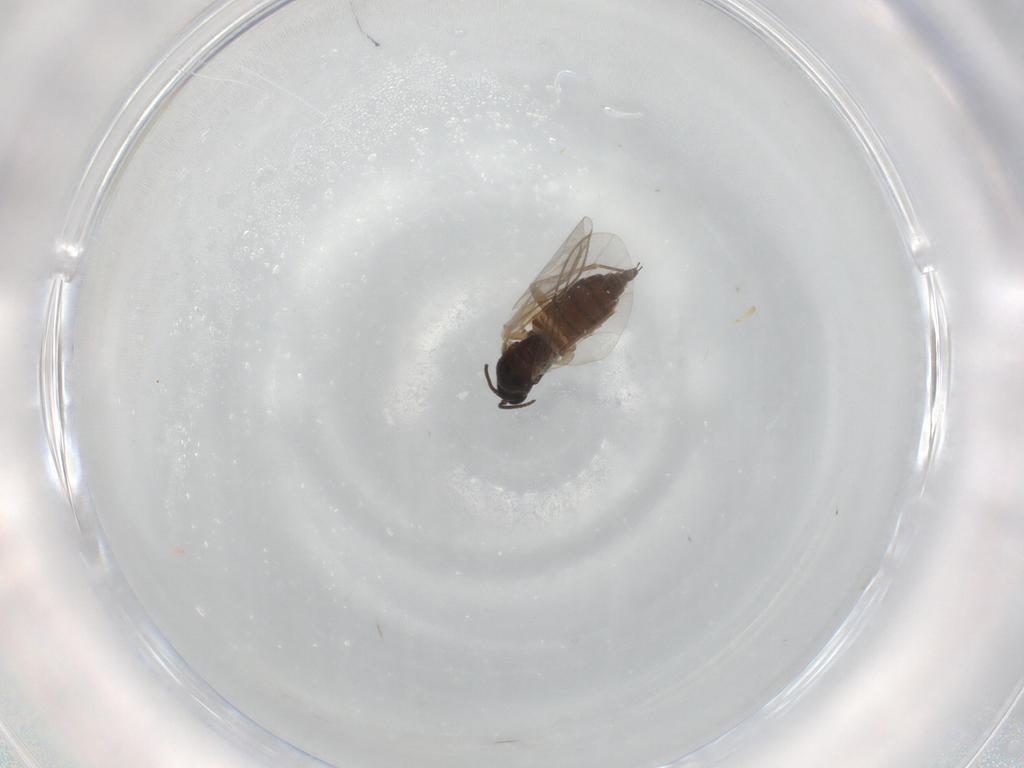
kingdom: Animalia
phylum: Arthropoda
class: Insecta
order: Diptera
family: Sciaridae
